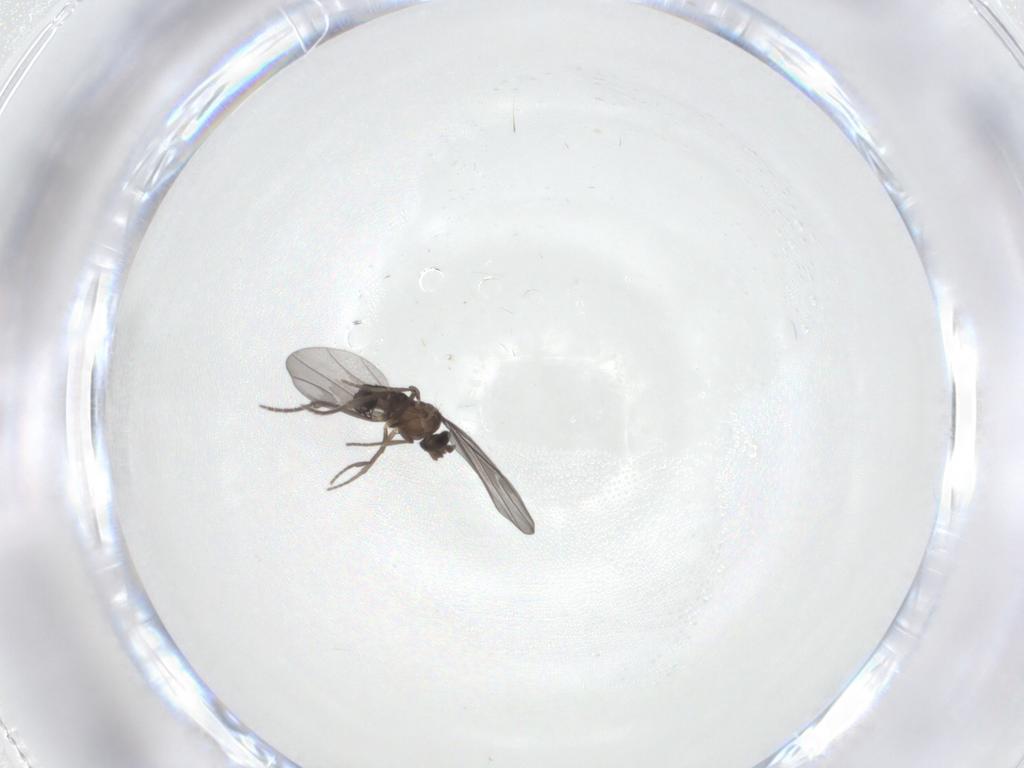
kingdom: Animalia
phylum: Arthropoda
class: Insecta
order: Diptera
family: Phoridae
